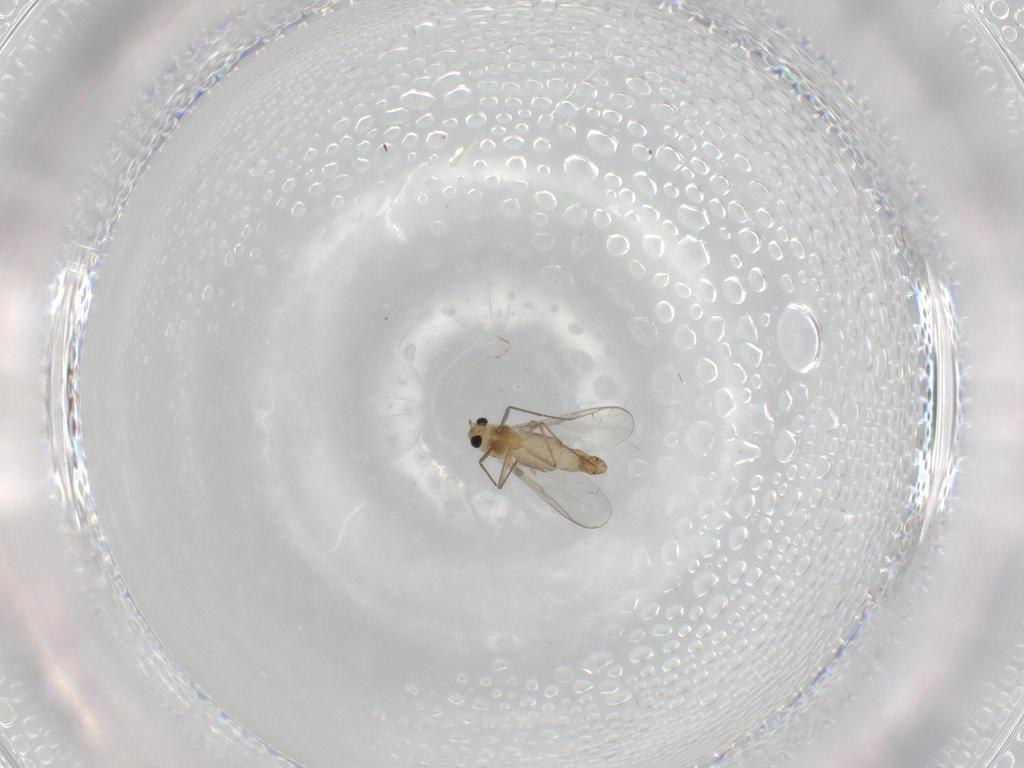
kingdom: Animalia
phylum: Arthropoda
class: Insecta
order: Diptera
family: Chironomidae
